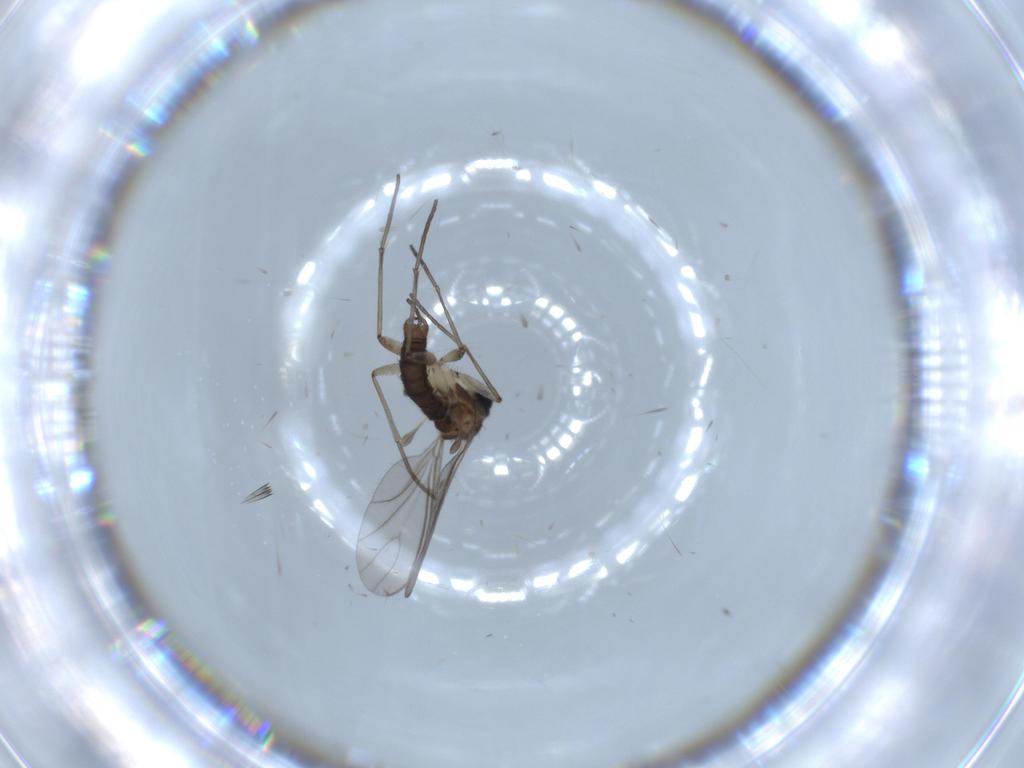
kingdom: Animalia
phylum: Arthropoda
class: Insecta
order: Diptera
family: Sciaridae
